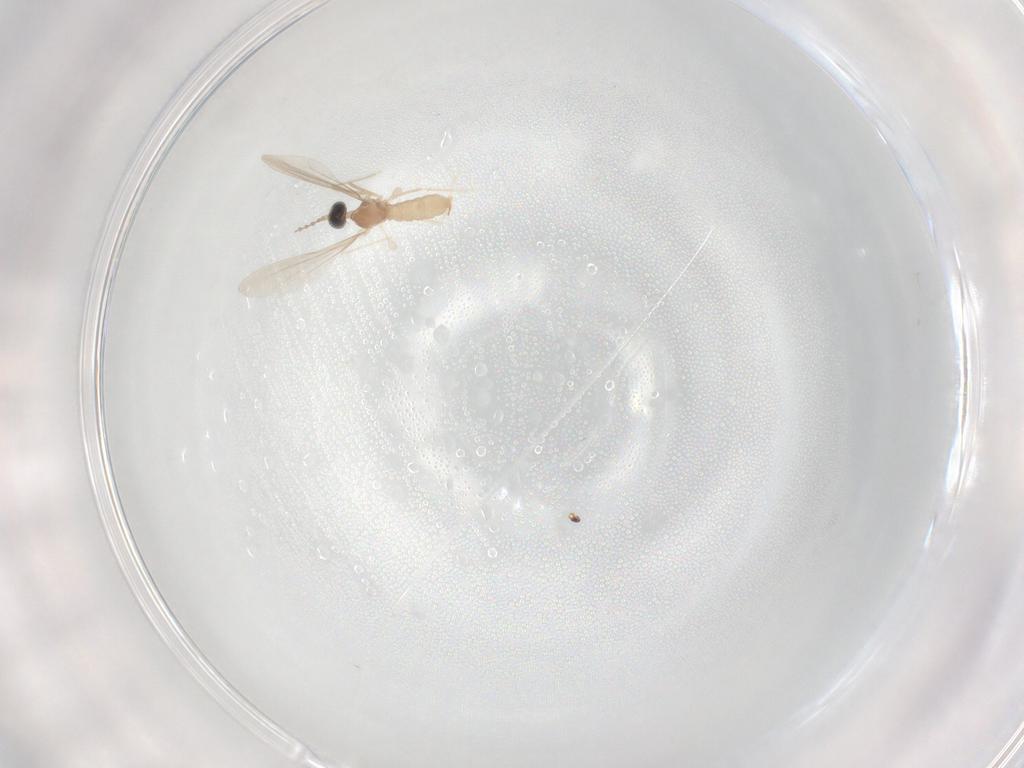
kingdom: Animalia
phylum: Arthropoda
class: Insecta
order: Diptera
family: Cecidomyiidae
